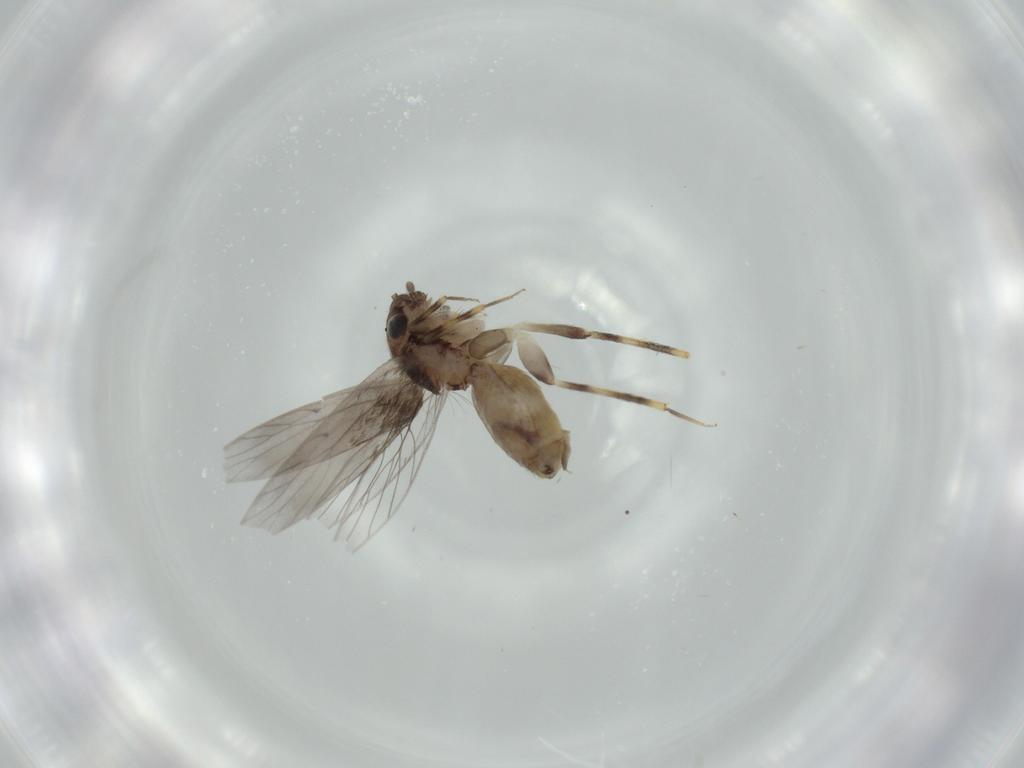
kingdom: Animalia
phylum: Arthropoda
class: Insecta
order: Psocodea
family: Lepidopsocidae
